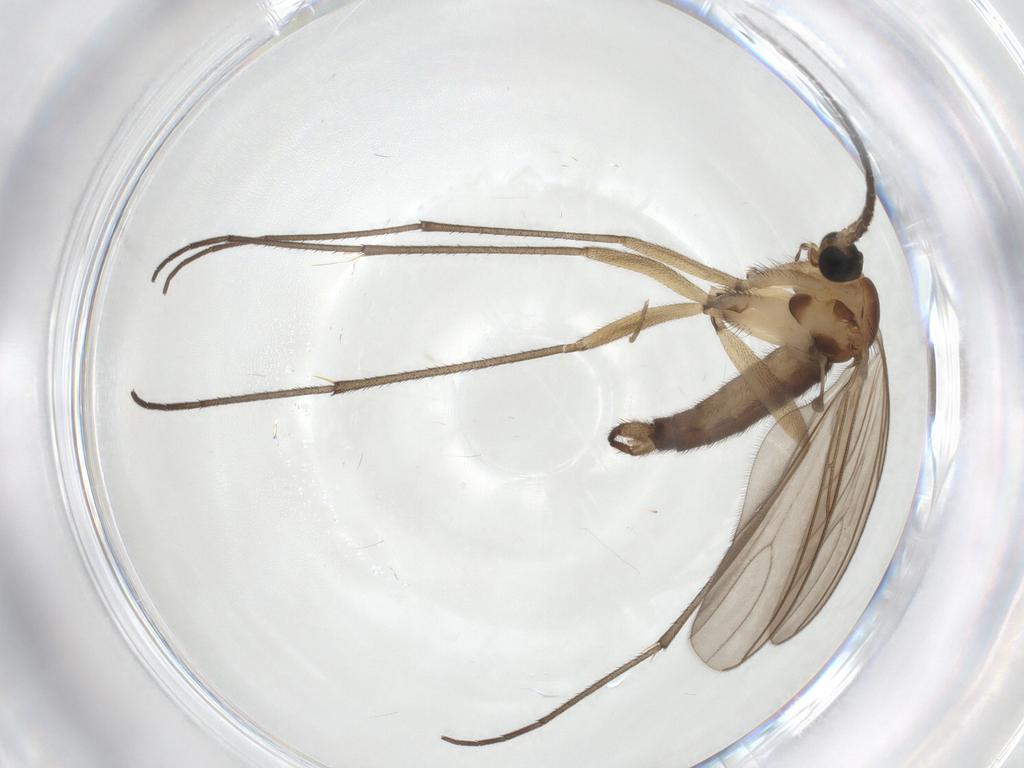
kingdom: Animalia
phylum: Arthropoda
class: Insecta
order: Diptera
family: Sciaridae
